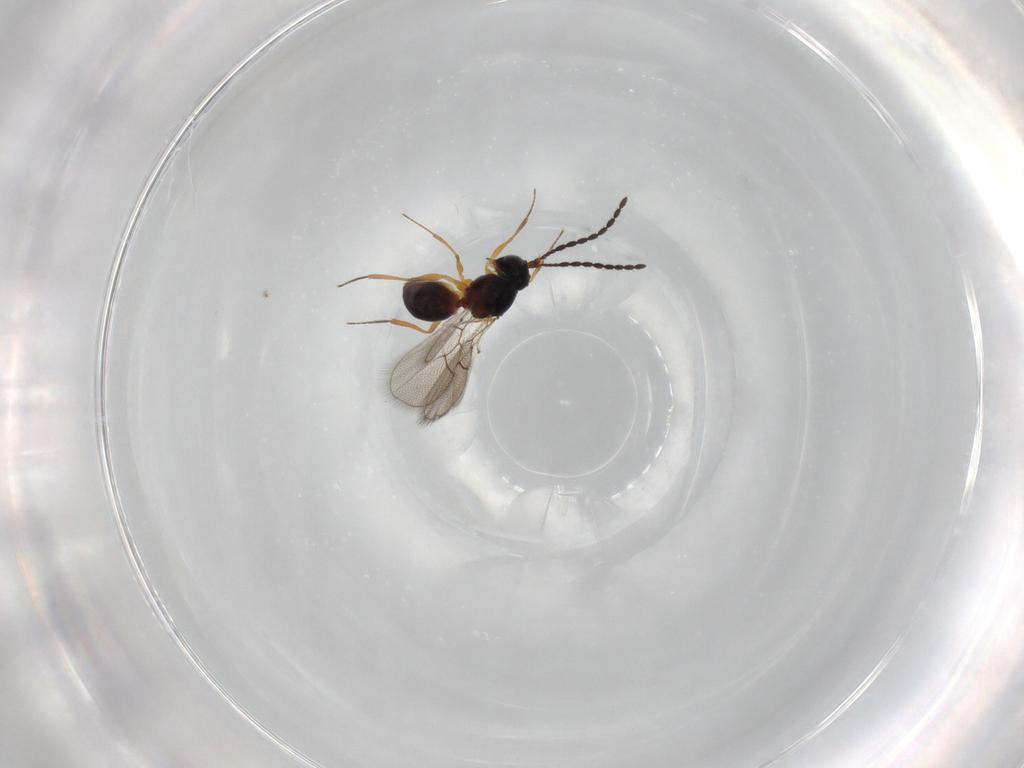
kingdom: Animalia
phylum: Arthropoda
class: Insecta
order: Hymenoptera
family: Figitidae
